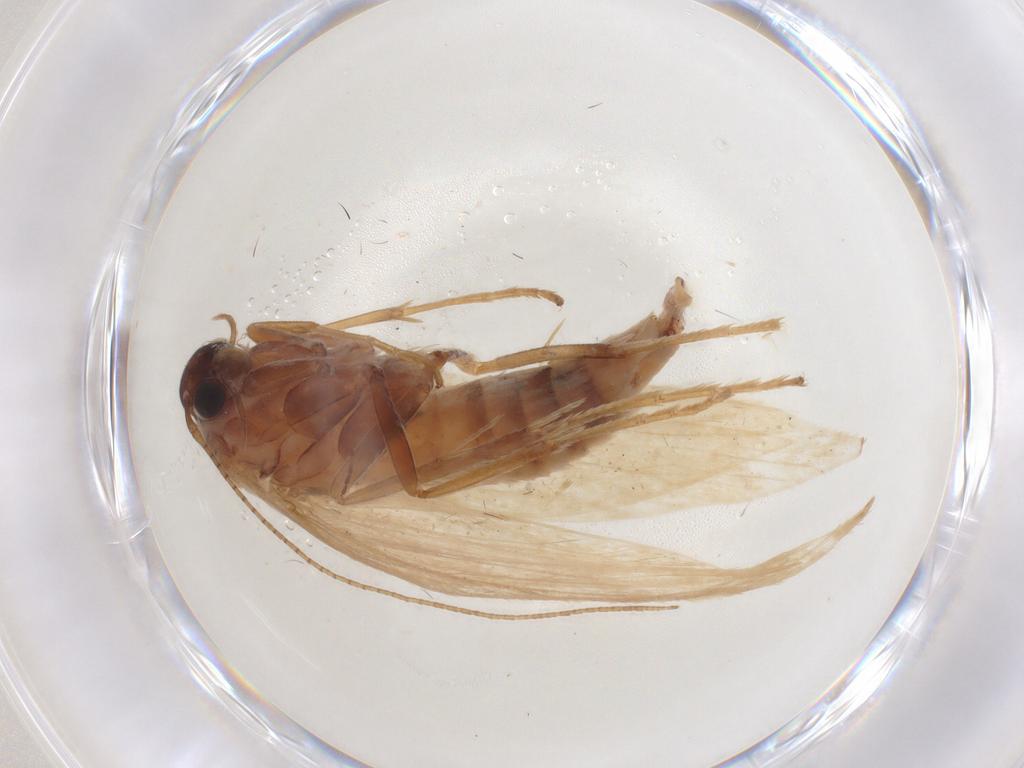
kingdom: Animalia
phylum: Arthropoda
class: Insecta
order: Lepidoptera
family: Scythrididae
